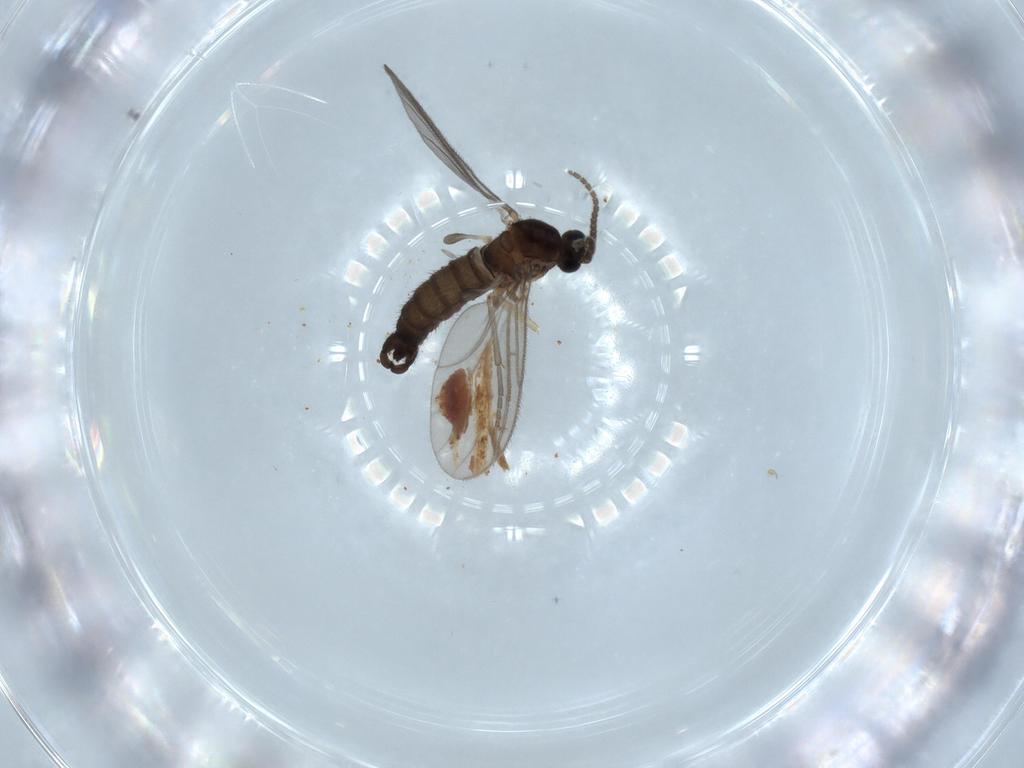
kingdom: Animalia
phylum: Arthropoda
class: Insecta
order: Diptera
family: Sciaridae
